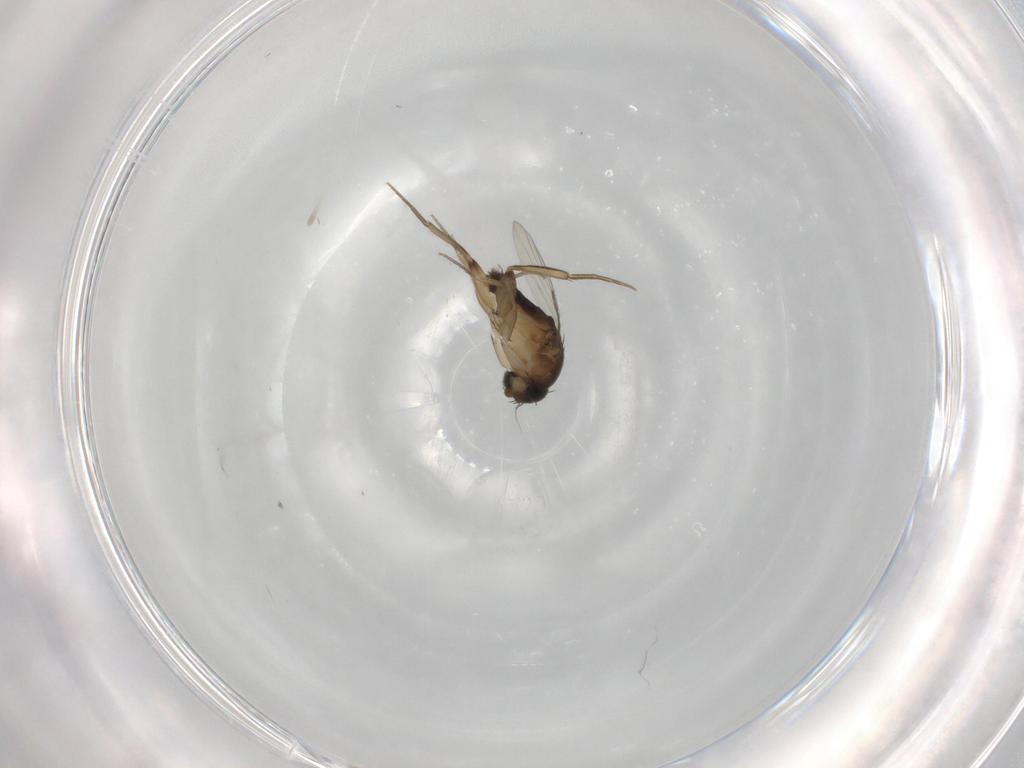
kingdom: Animalia
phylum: Arthropoda
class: Insecta
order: Diptera
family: Phoridae
